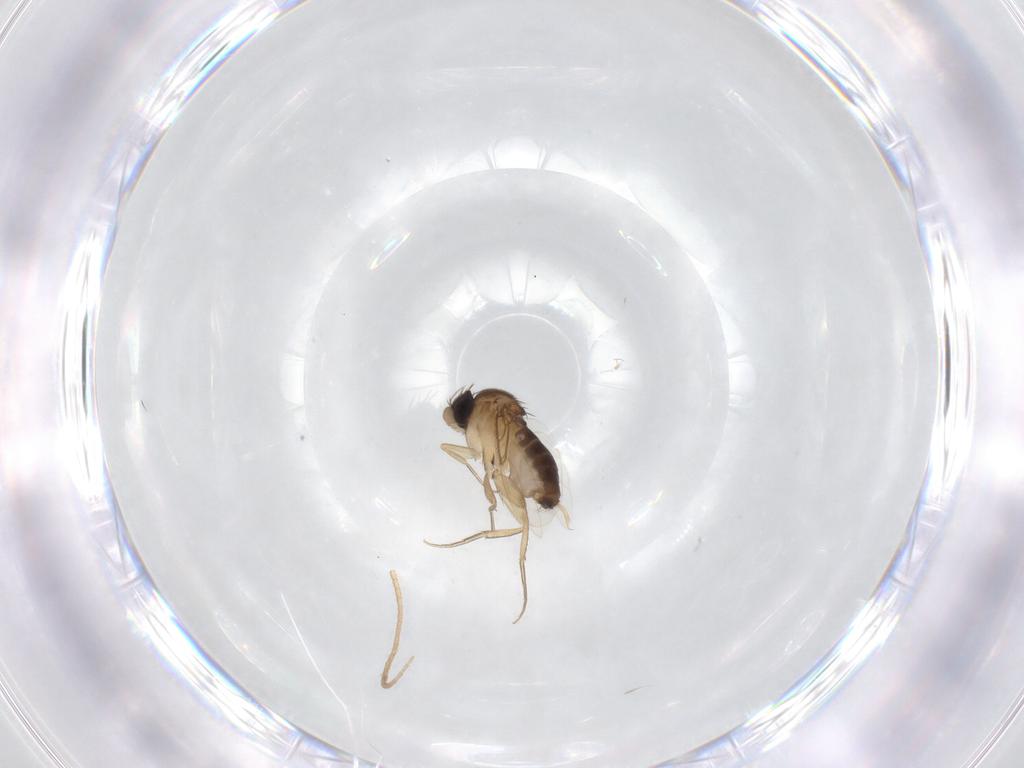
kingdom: Animalia
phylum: Arthropoda
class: Insecta
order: Diptera
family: Phoridae
